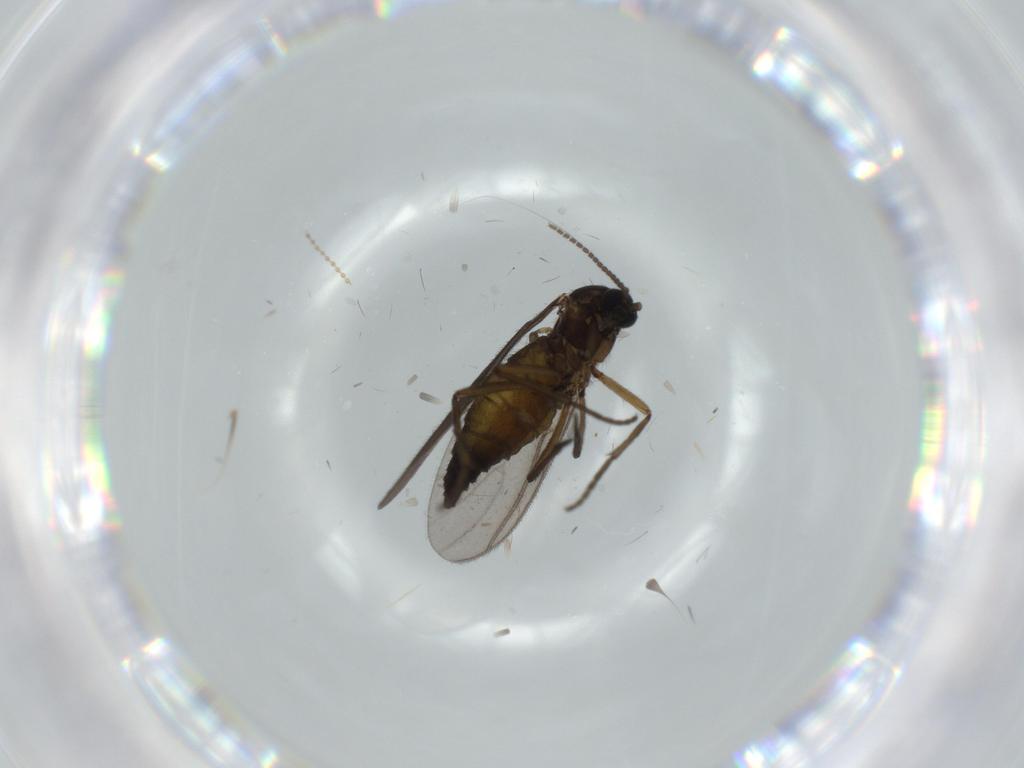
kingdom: Animalia
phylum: Arthropoda
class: Insecta
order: Diptera
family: Sciaridae
